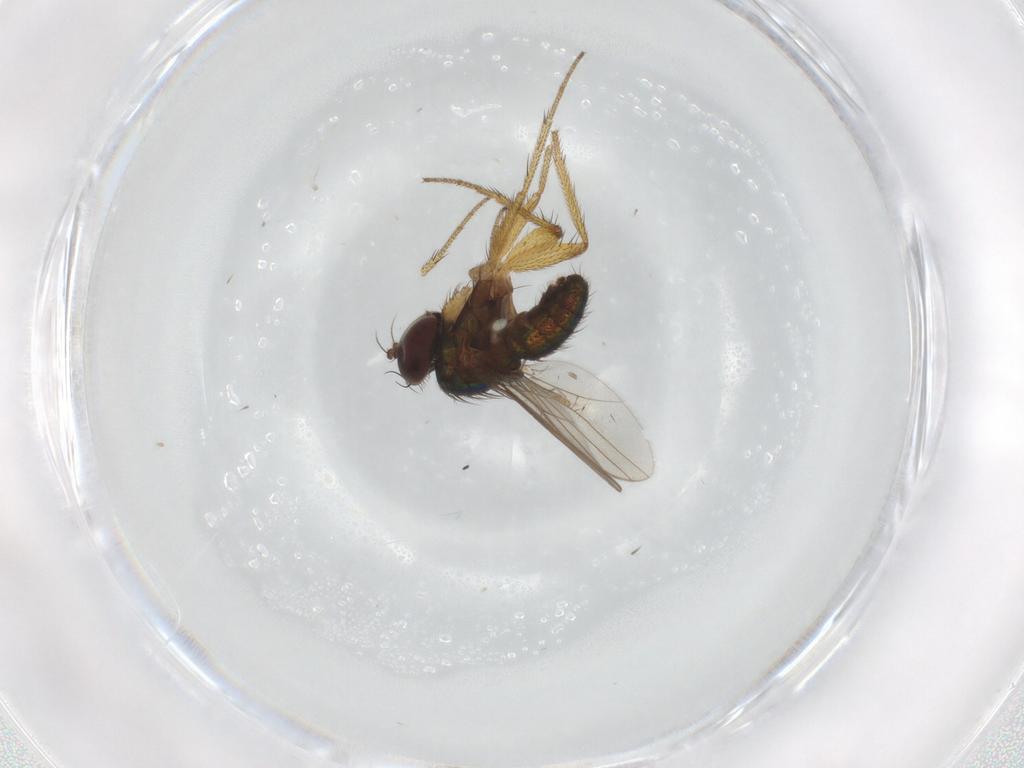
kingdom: Animalia
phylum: Arthropoda
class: Insecta
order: Diptera
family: Dolichopodidae
